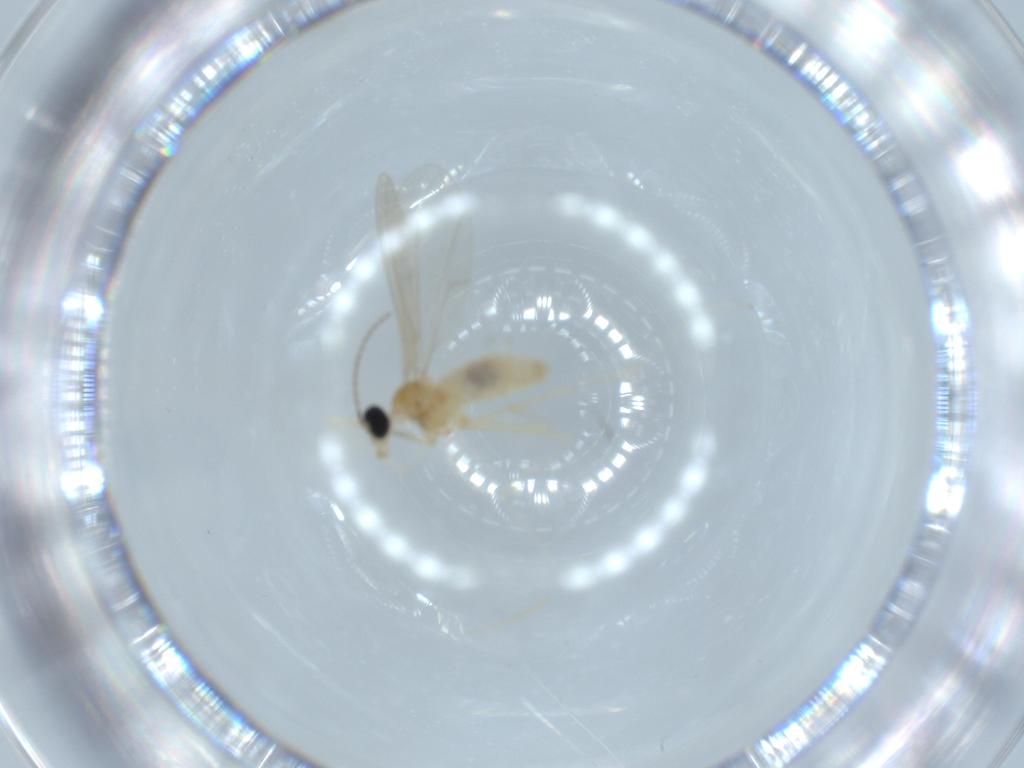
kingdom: Animalia
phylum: Arthropoda
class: Insecta
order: Diptera
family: Cecidomyiidae
